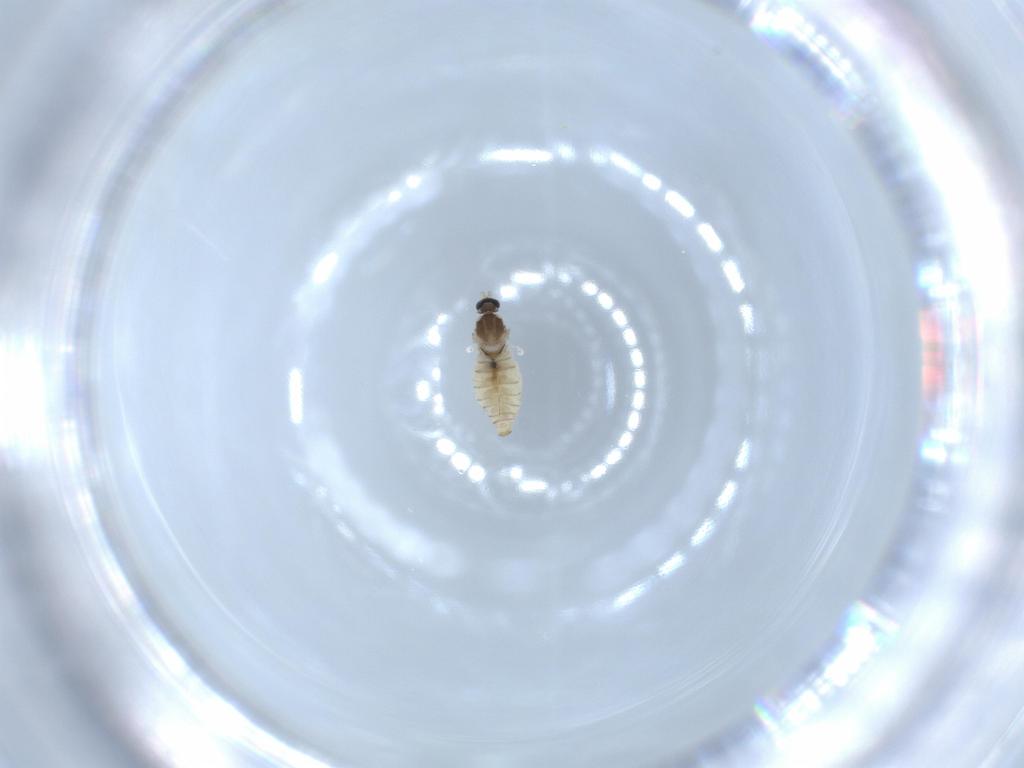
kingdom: Animalia
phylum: Arthropoda
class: Insecta
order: Diptera
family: Cecidomyiidae
